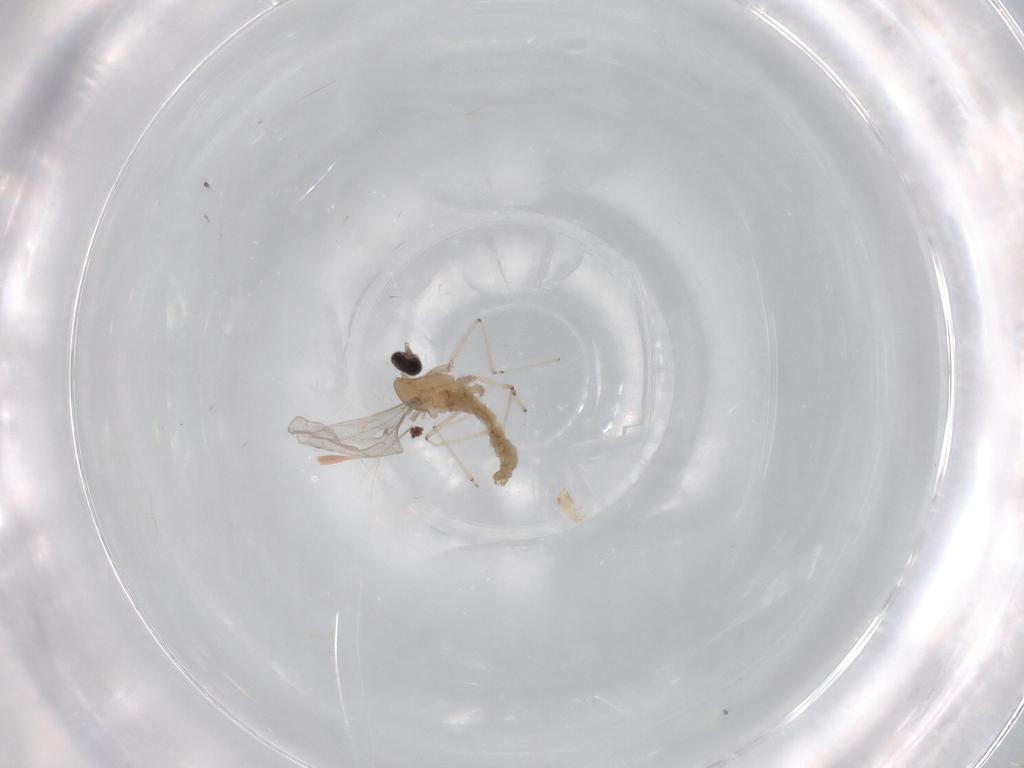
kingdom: Animalia
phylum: Arthropoda
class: Insecta
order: Diptera
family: Cecidomyiidae
